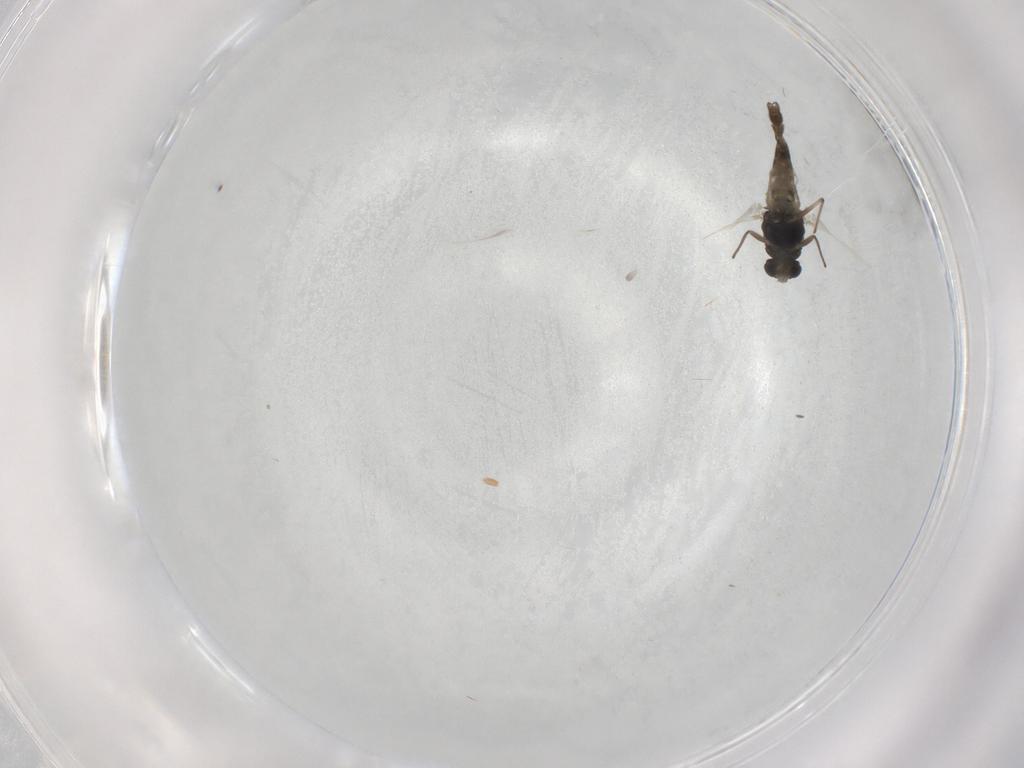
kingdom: Animalia
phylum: Arthropoda
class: Insecta
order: Diptera
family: Chironomidae
